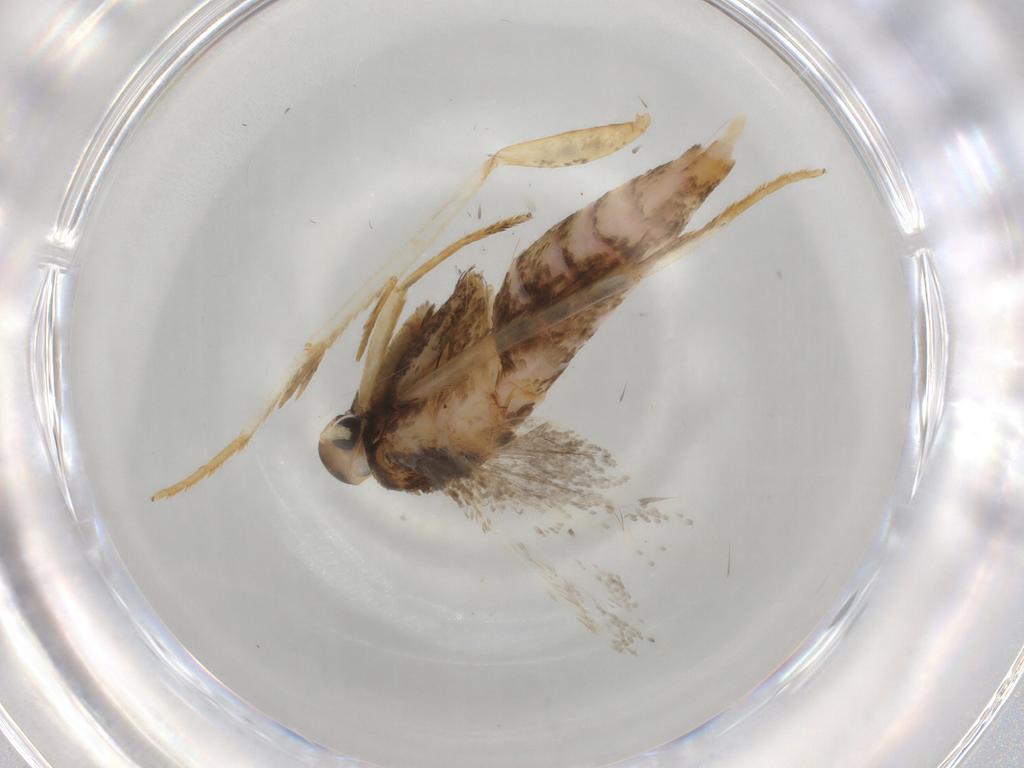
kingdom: Animalia
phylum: Arthropoda
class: Insecta
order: Lepidoptera
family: Lecithoceridae
